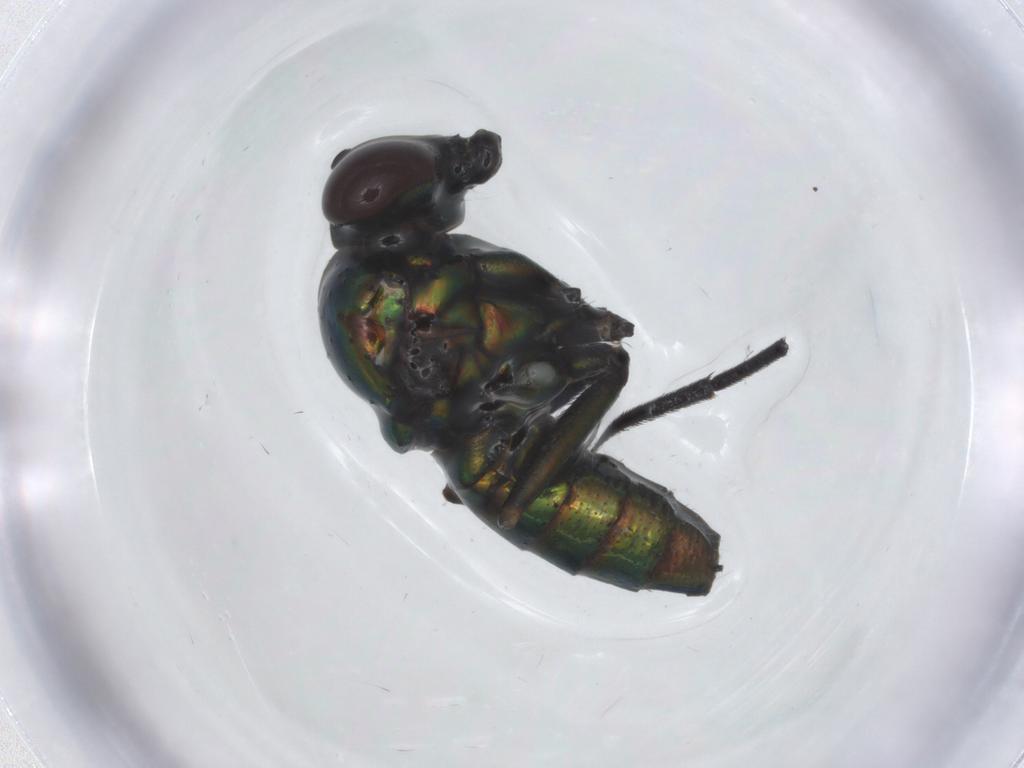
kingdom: Animalia
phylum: Arthropoda
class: Insecta
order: Diptera
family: Dolichopodidae
